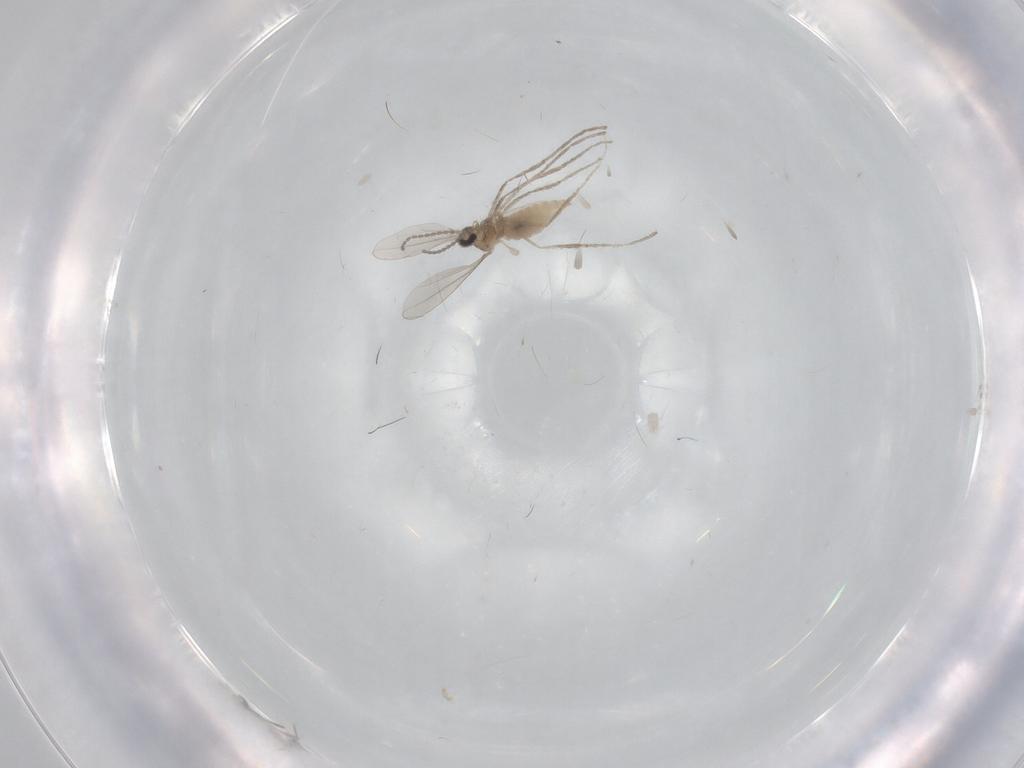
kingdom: Animalia
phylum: Arthropoda
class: Insecta
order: Diptera
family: Cecidomyiidae
